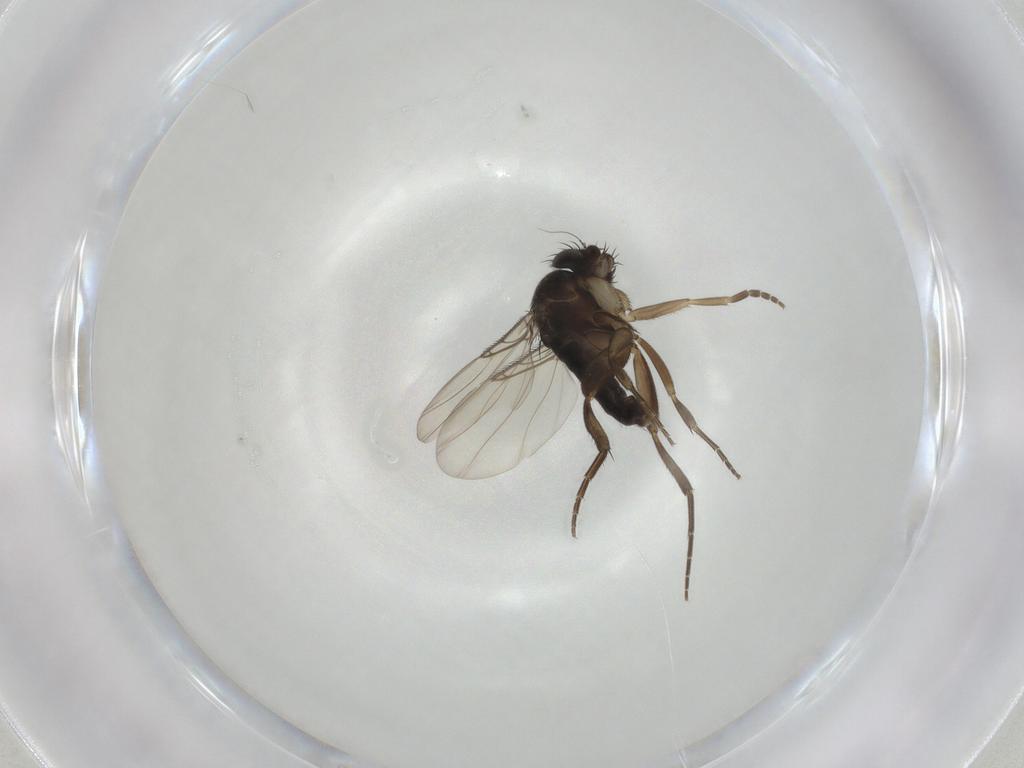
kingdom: Animalia
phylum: Arthropoda
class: Insecta
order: Diptera
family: Phoridae
